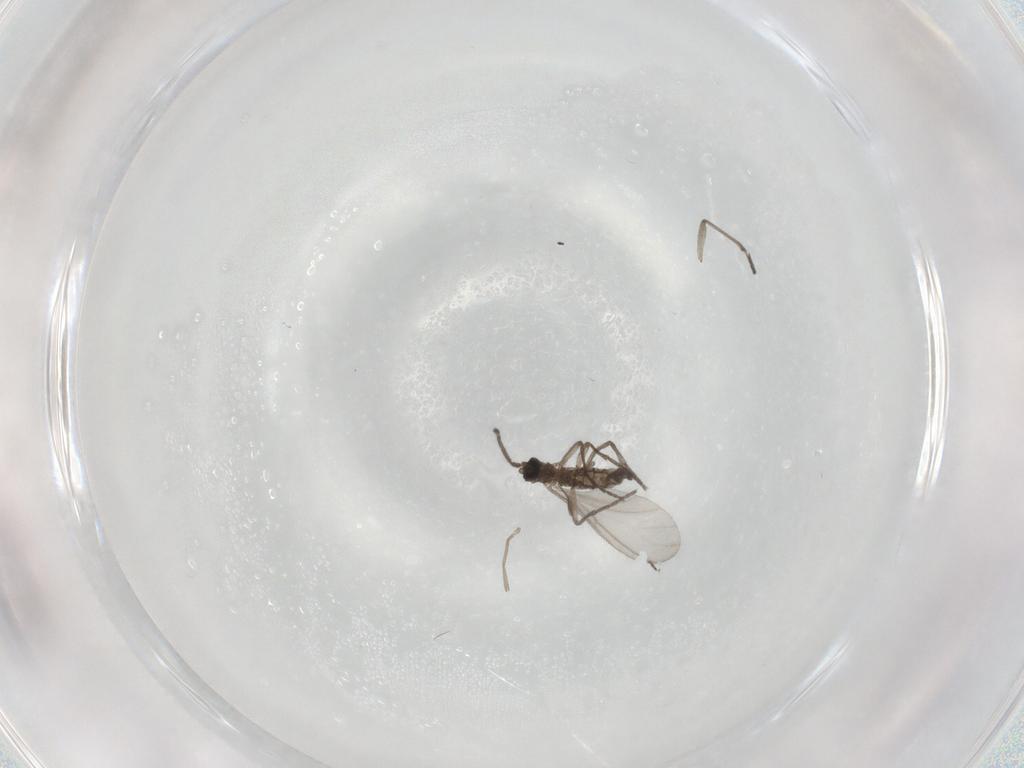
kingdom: Animalia
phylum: Arthropoda
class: Insecta
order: Diptera
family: Sciaridae
